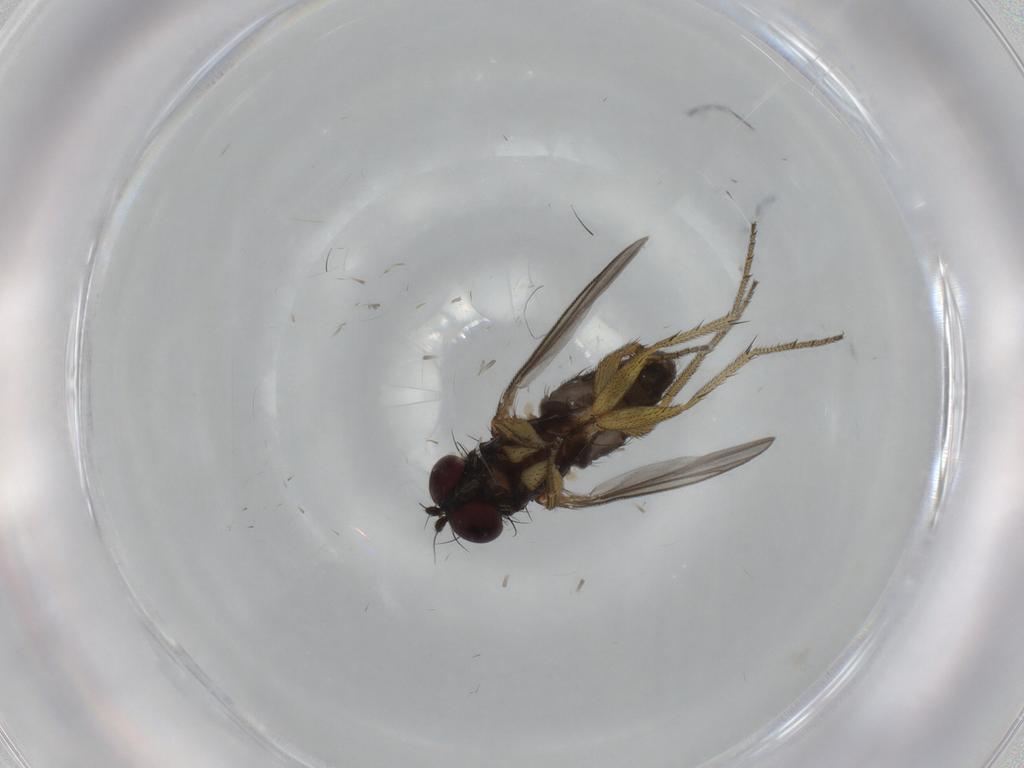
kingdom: Animalia
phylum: Arthropoda
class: Insecta
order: Diptera
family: Dolichopodidae
